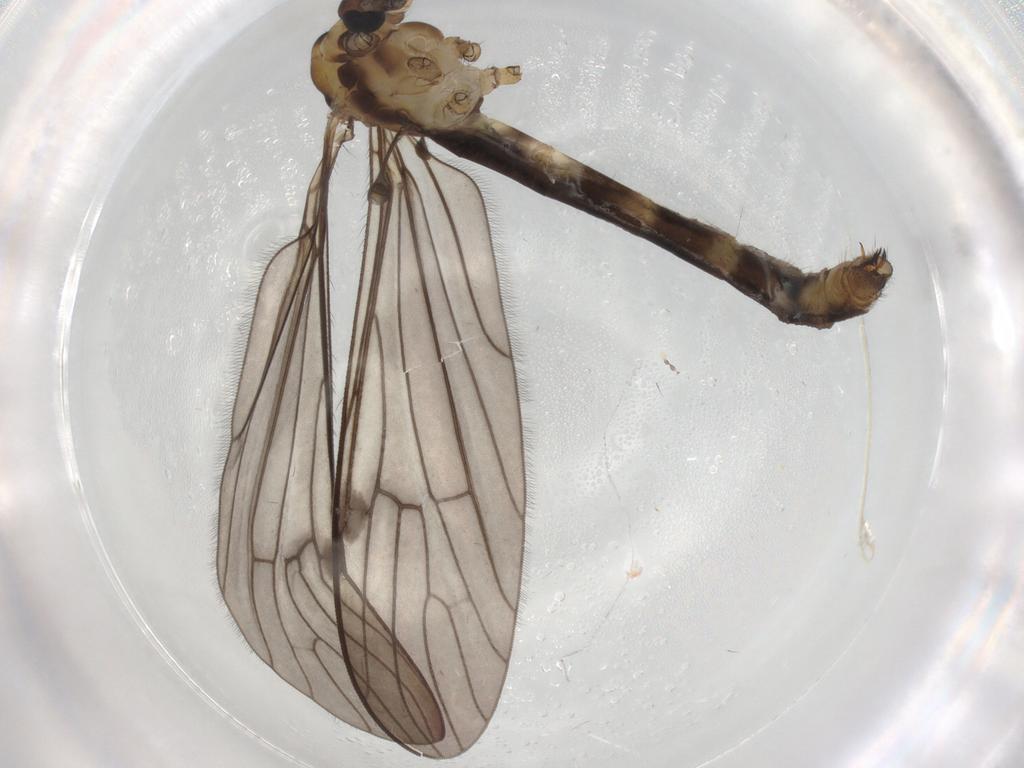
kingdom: Animalia
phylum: Arthropoda
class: Insecta
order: Diptera
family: Limoniidae
